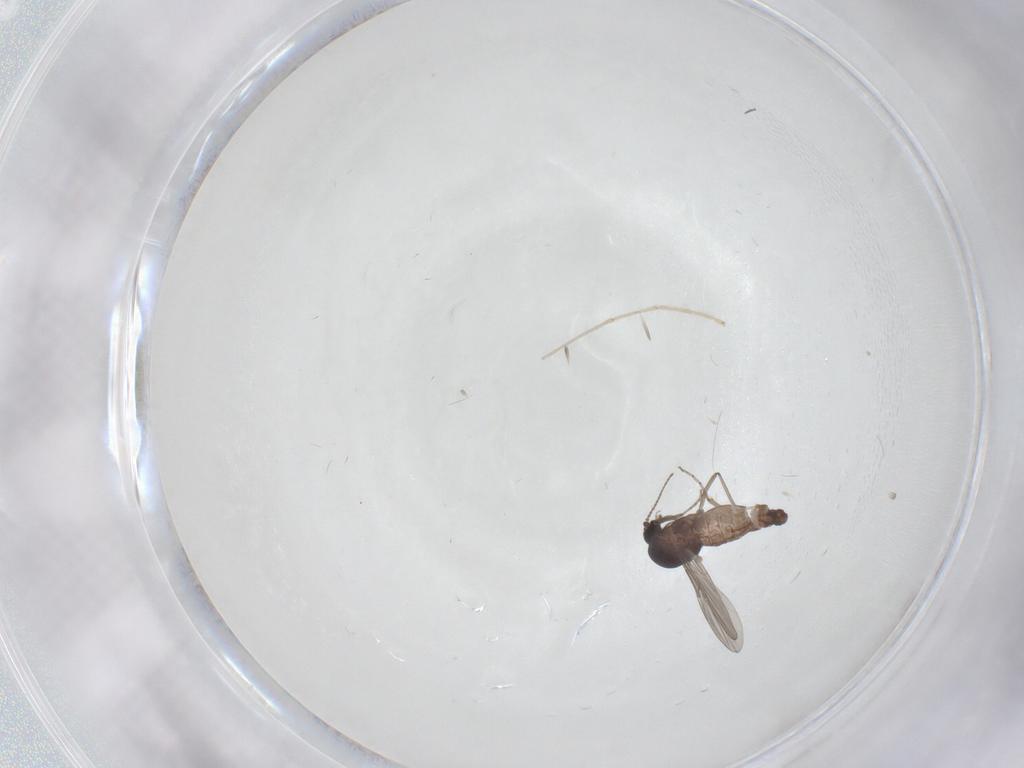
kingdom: Animalia
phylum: Arthropoda
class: Insecta
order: Diptera
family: Ceratopogonidae
